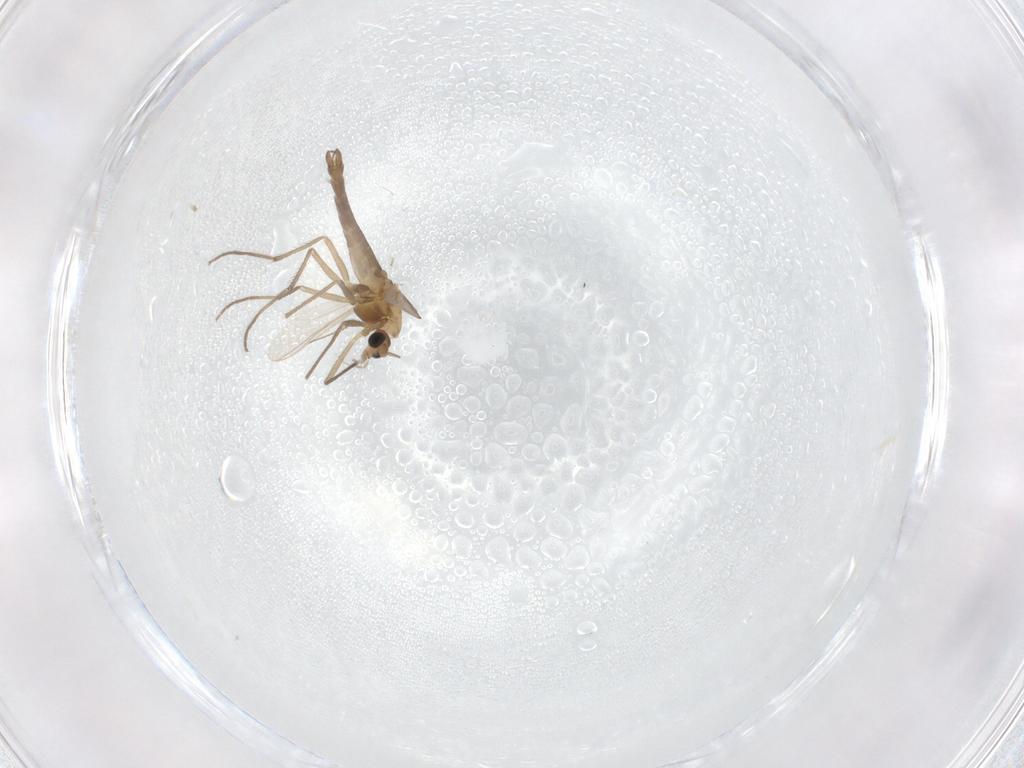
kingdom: Animalia
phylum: Arthropoda
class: Insecta
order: Diptera
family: Chironomidae
